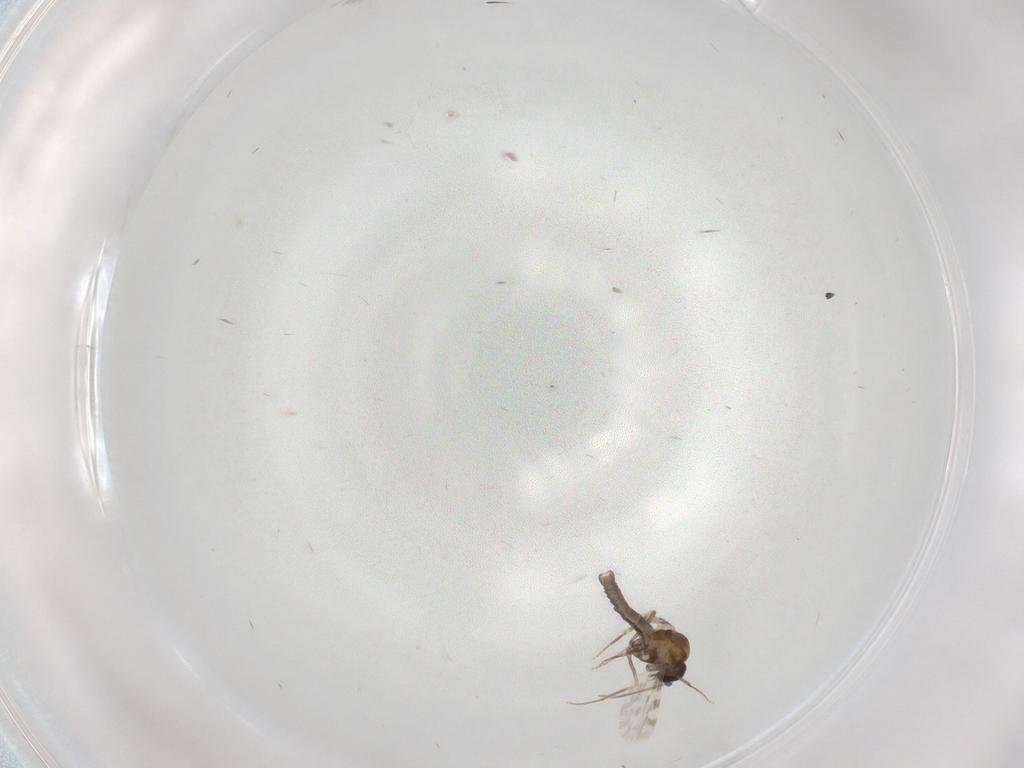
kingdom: Animalia
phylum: Arthropoda
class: Insecta
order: Diptera
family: Ceratopogonidae
